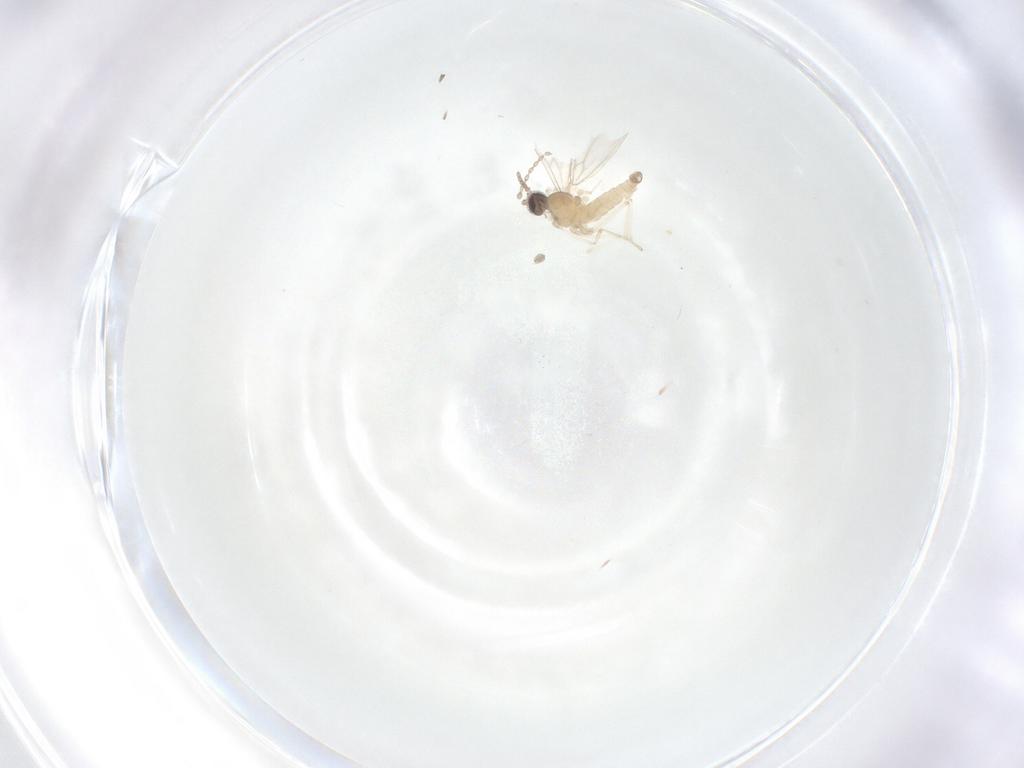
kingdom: Animalia
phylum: Arthropoda
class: Insecta
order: Diptera
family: Cecidomyiidae
